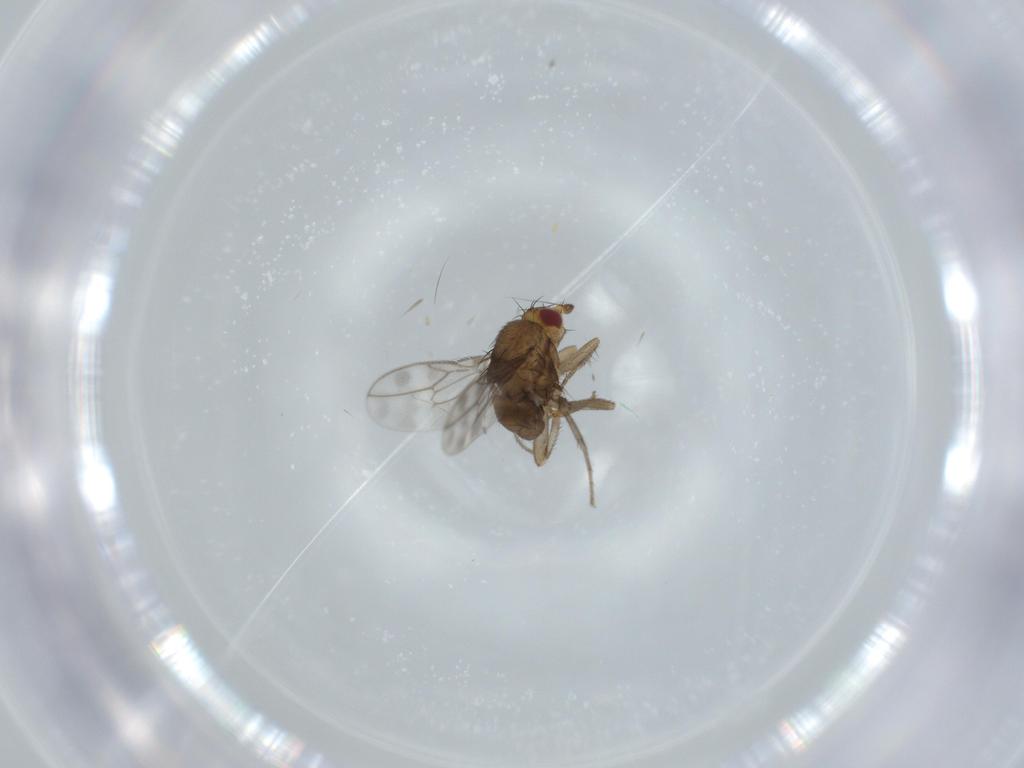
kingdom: Animalia
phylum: Arthropoda
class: Insecta
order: Diptera
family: Sphaeroceridae
